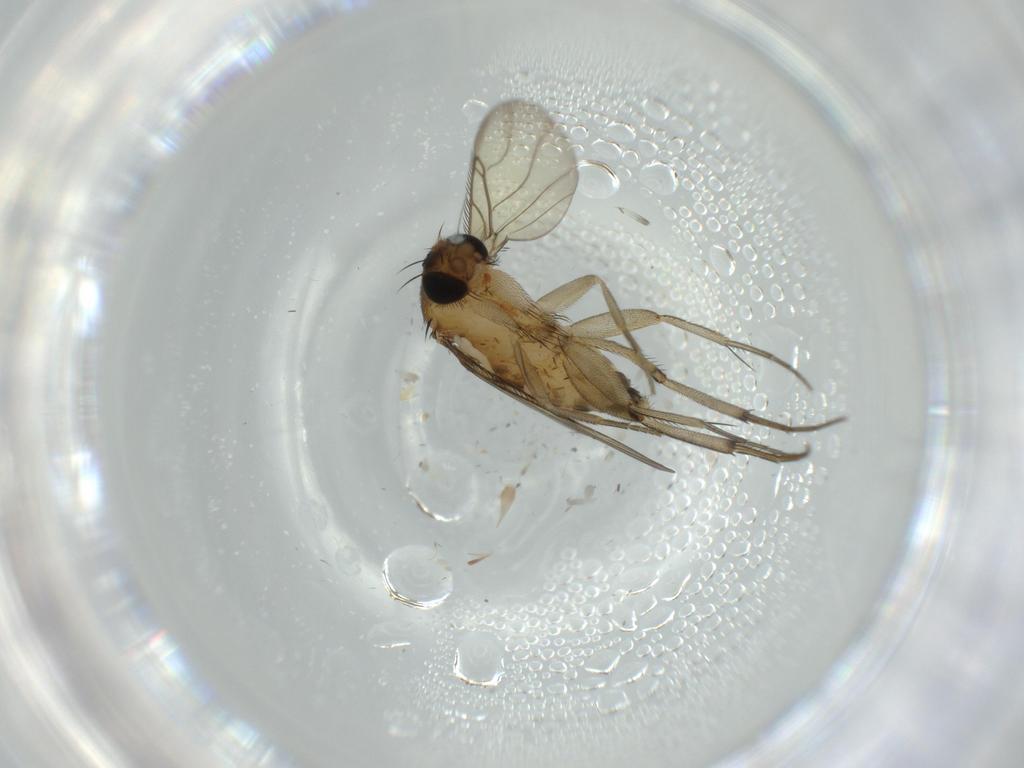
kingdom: Animalia
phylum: Arthropoda
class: Insecta
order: Diptera
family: Phoridae
